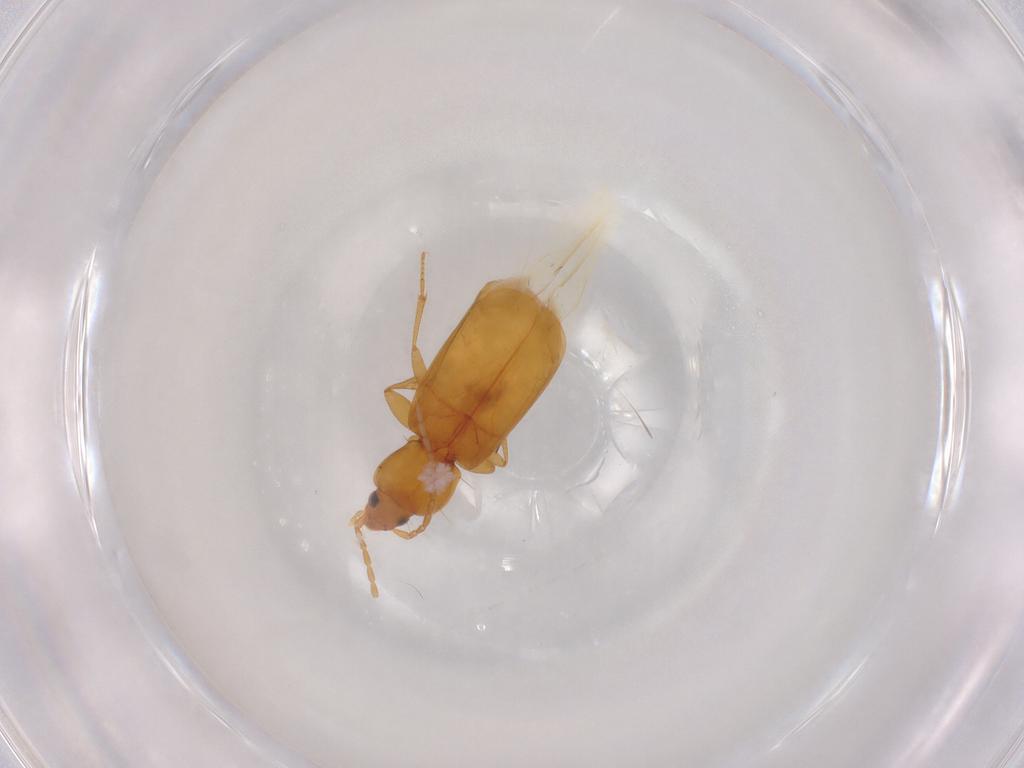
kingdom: Animalia
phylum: Arthropoda
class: Insecta
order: Coleoptera
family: Carabidae
